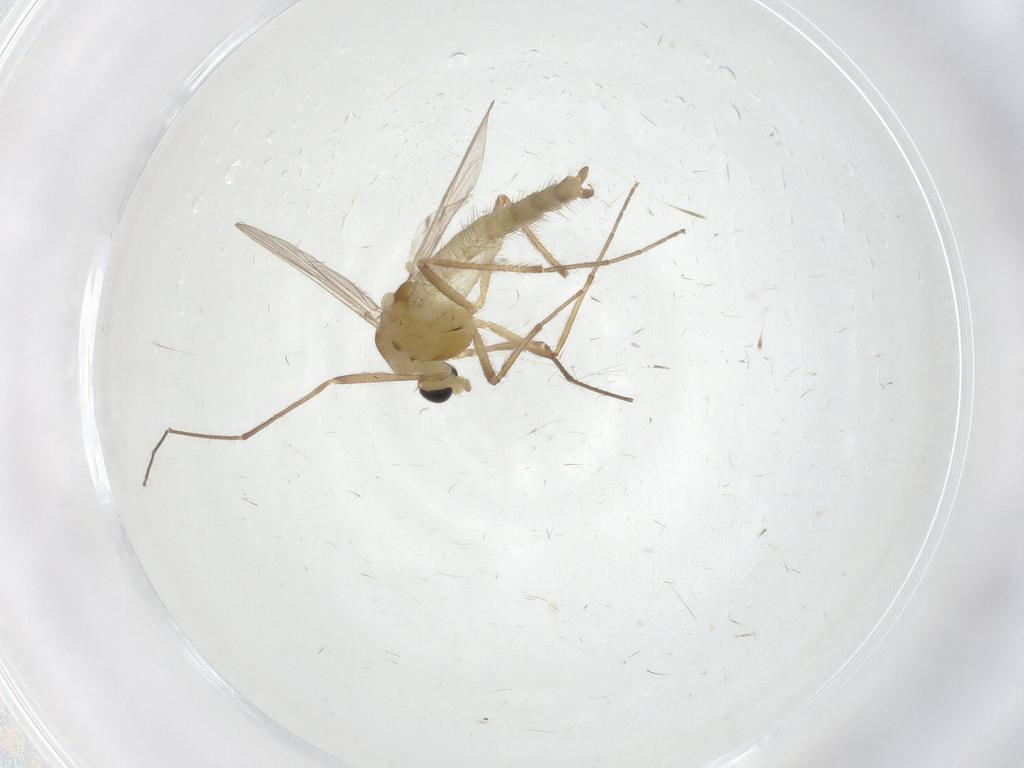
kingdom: Animalia
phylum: Arthropoda
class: Insecta
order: Diptera
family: Chironomidae
